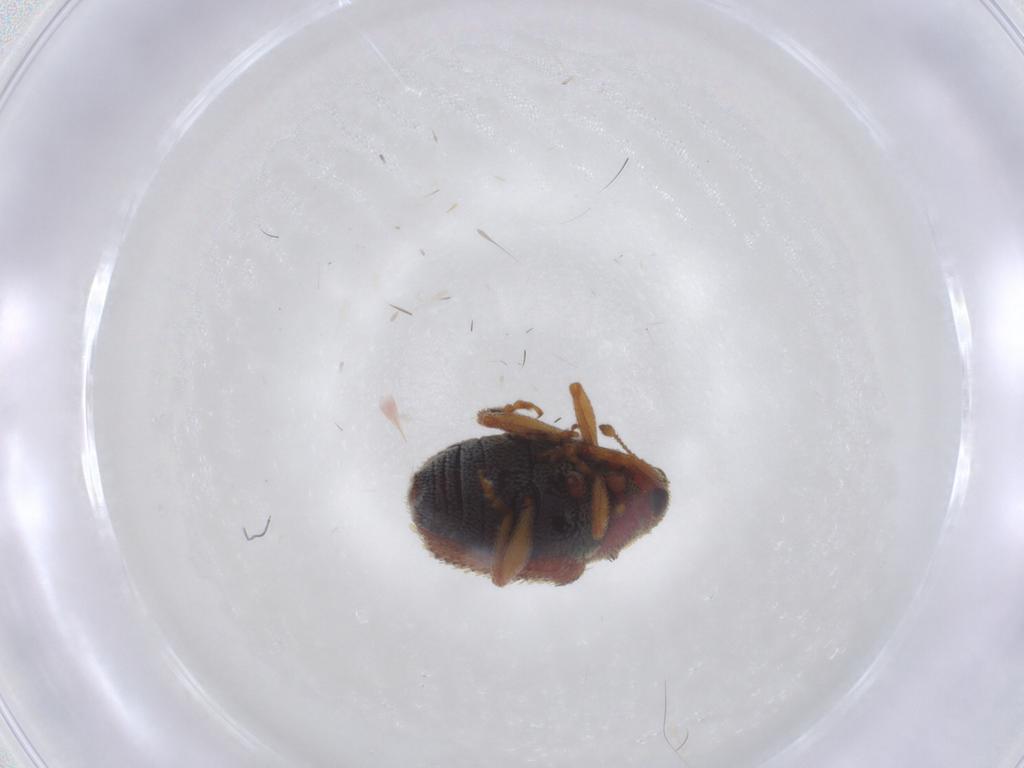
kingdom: Animalia
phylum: Arthropoda
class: Insecta
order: Coleoptera
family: Curculionidae
